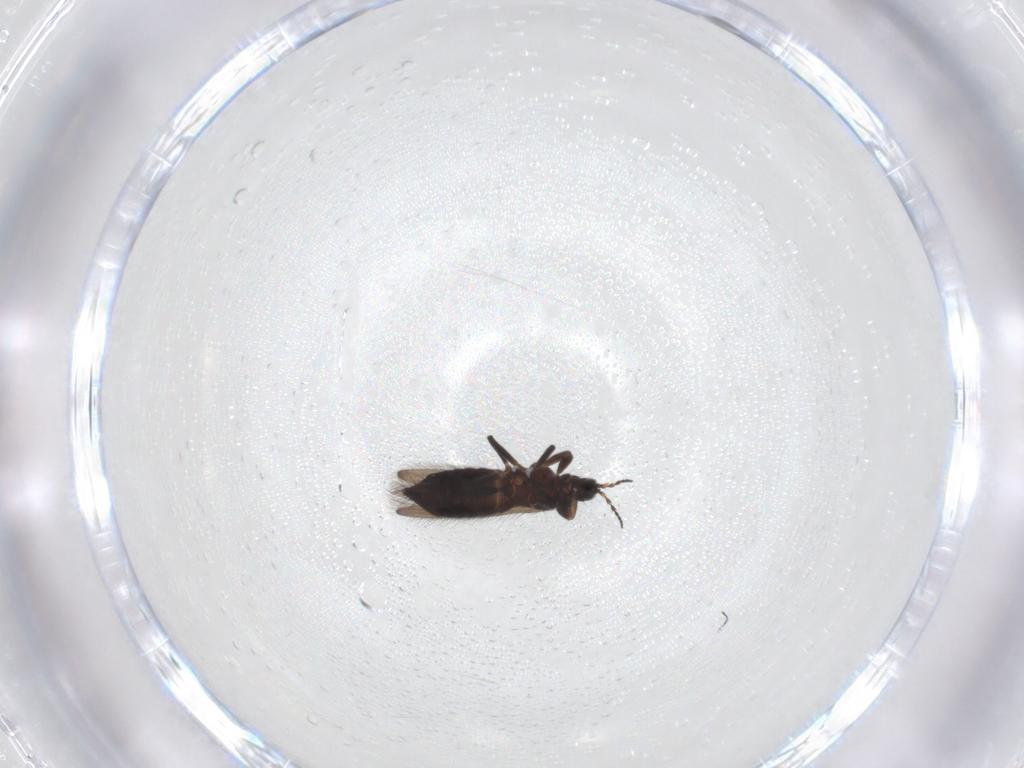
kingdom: Animalia
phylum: Arthropoda
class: Insecta
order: Thysanoptera
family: Melanthripidae
